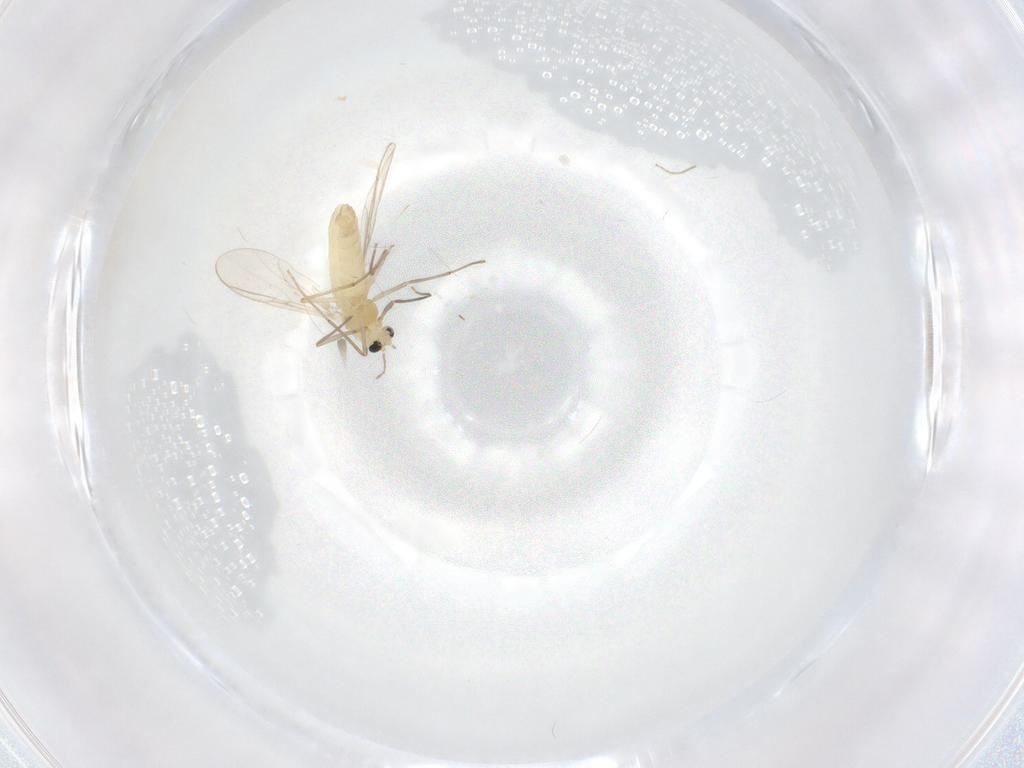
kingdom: Animalia
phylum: Arthropoda
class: Insecta
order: Diptera
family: Chironomidae
